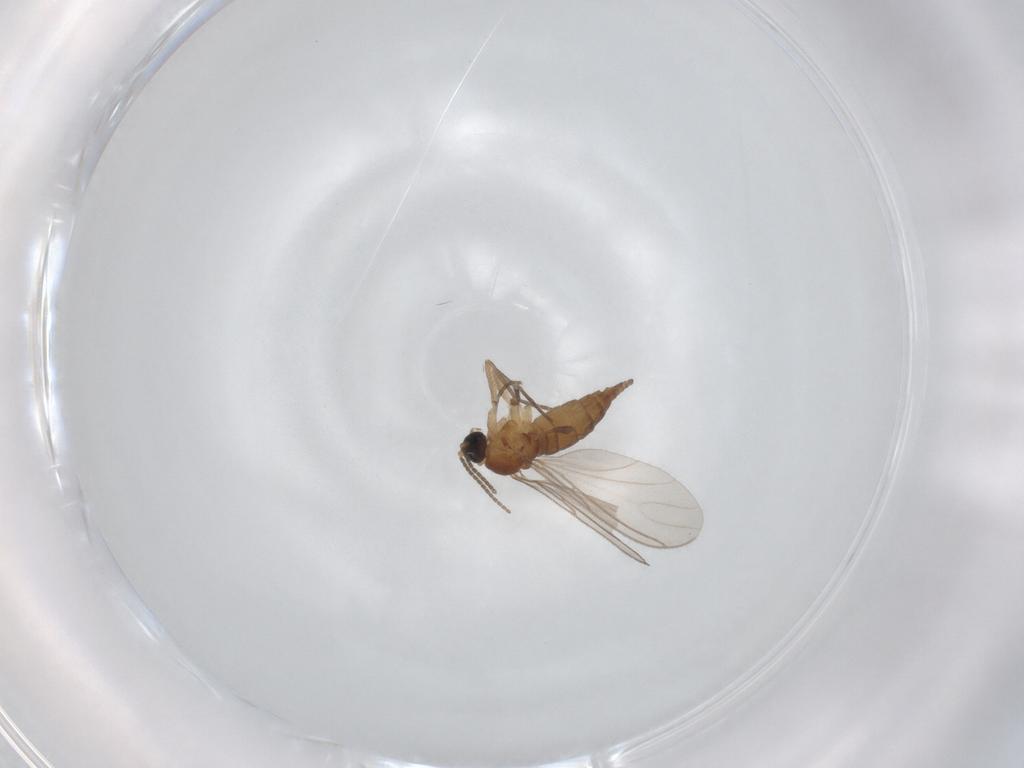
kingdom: Animalia
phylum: Arthropoda
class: Insecta
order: Diptera
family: Sciaridae
